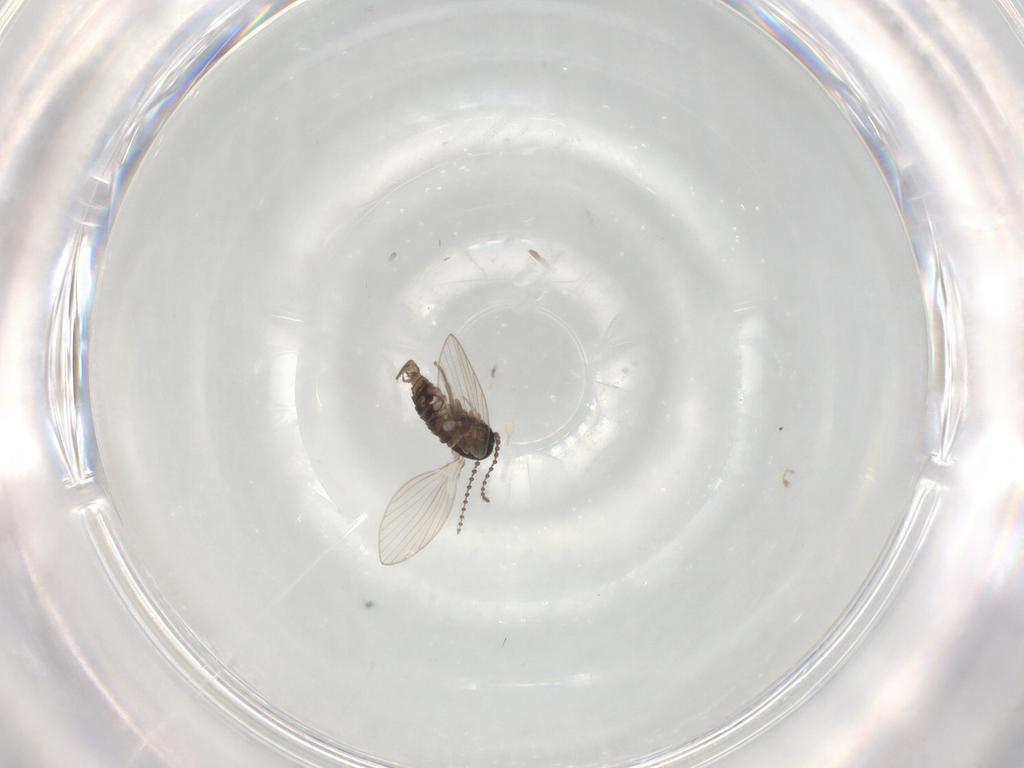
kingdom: Animalia
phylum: Arthropoda
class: Insecta
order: Diptera
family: Psychodidae
